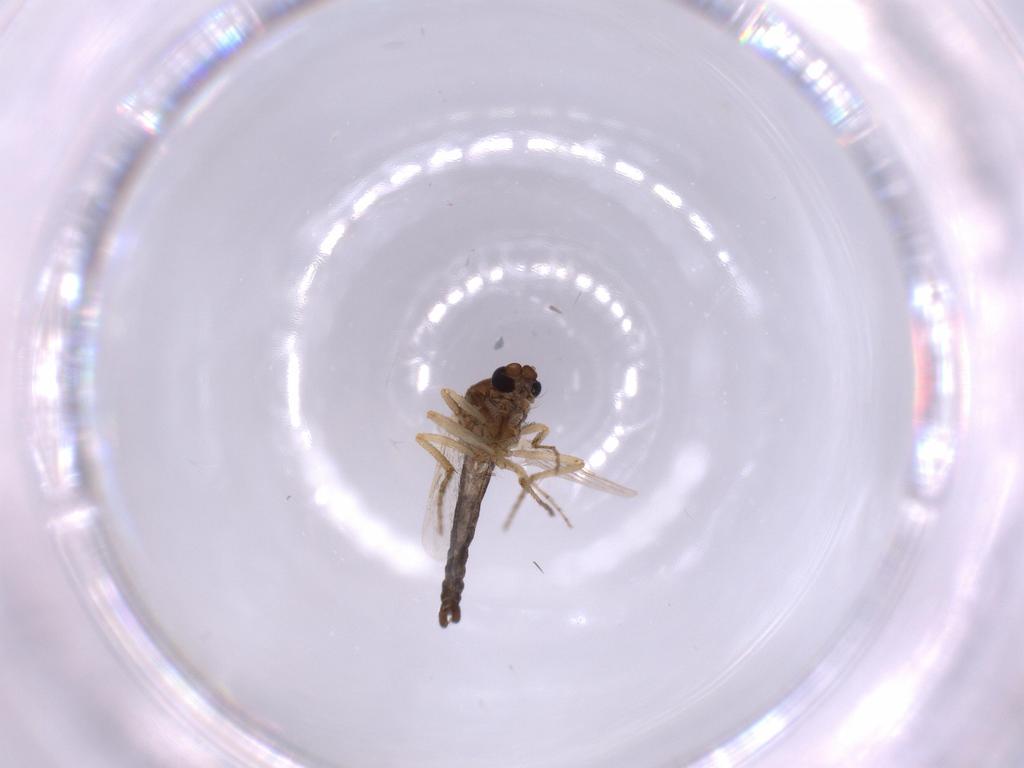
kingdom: Animalia
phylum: Arthropoda
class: Insecta
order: Diptera
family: Ceratopogonidae
